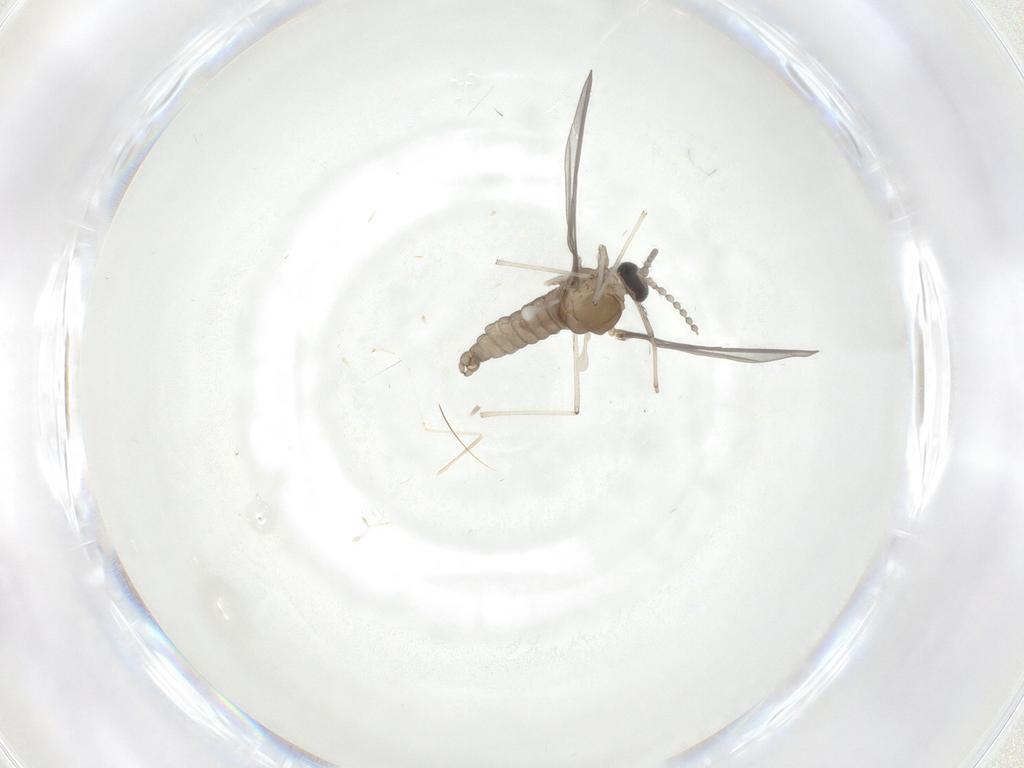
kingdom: Animalia
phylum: Arthropoda
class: Insecta
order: Diptera
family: Cecidomyiidae
